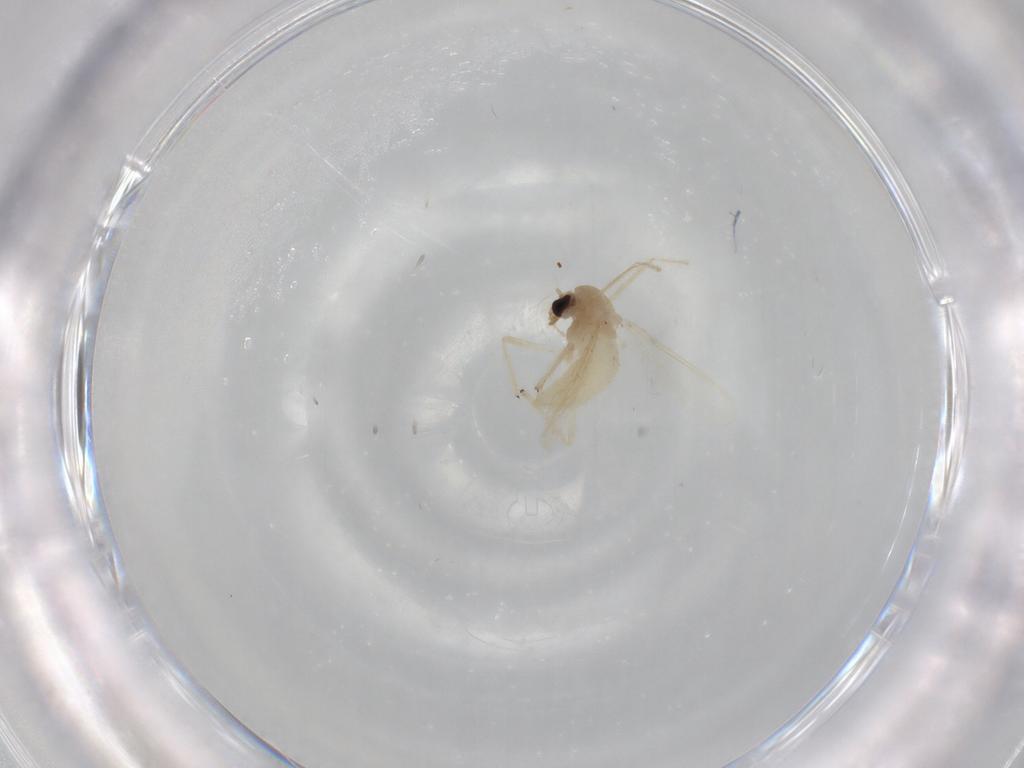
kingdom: Animalia
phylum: Arthropoda
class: Insecta
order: Diptera
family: Chironomidae
